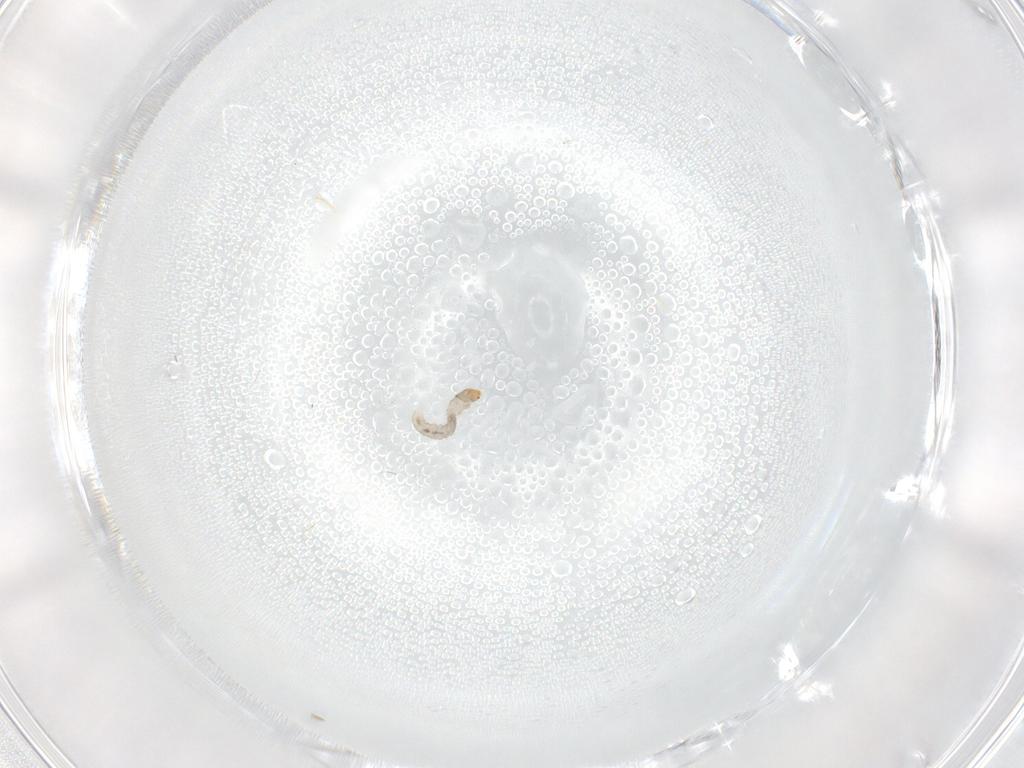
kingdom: Animalia
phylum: Arthropoda
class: Insecta
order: Lepidoptera
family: Tineidae
